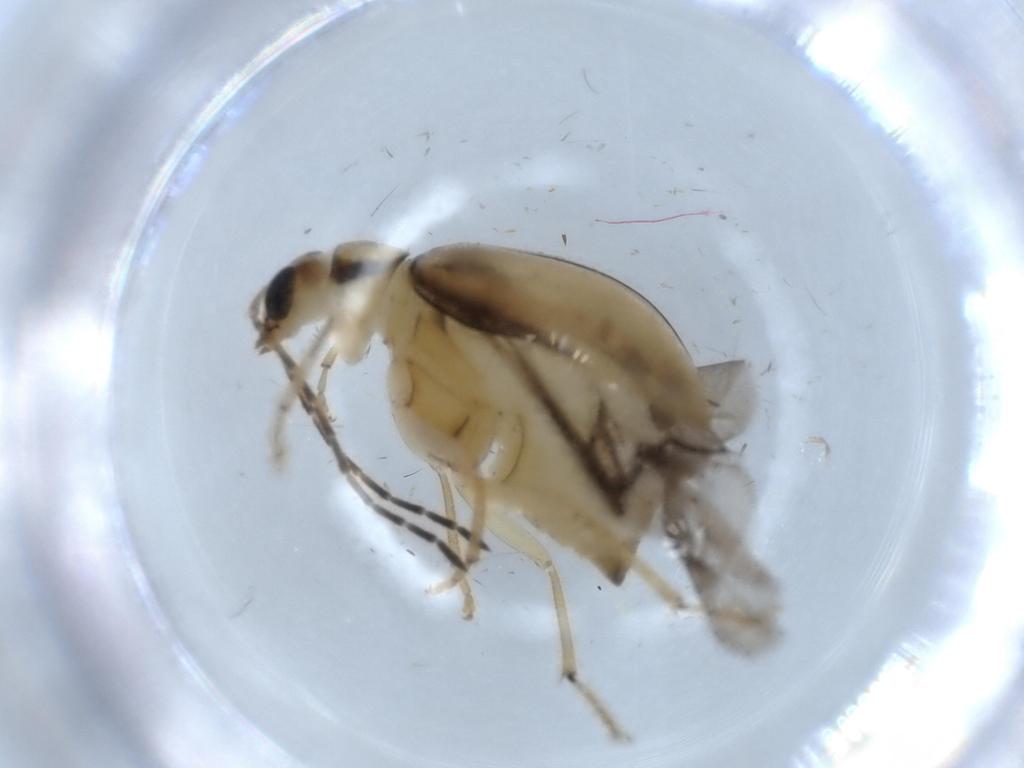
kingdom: Animalia
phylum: Arthropoda
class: Insecta
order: Coleoptera
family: Chrysomelidae
